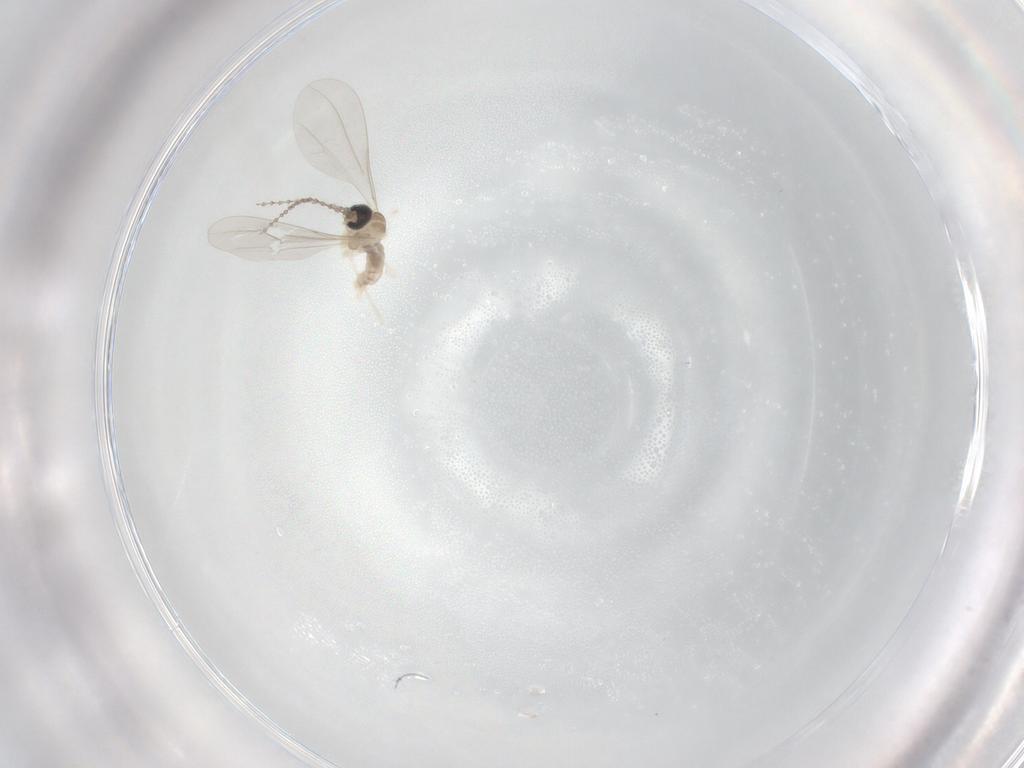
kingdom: Animalia
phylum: Arthropoda
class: Insecta
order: Diptera
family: Cecidomyiidae
